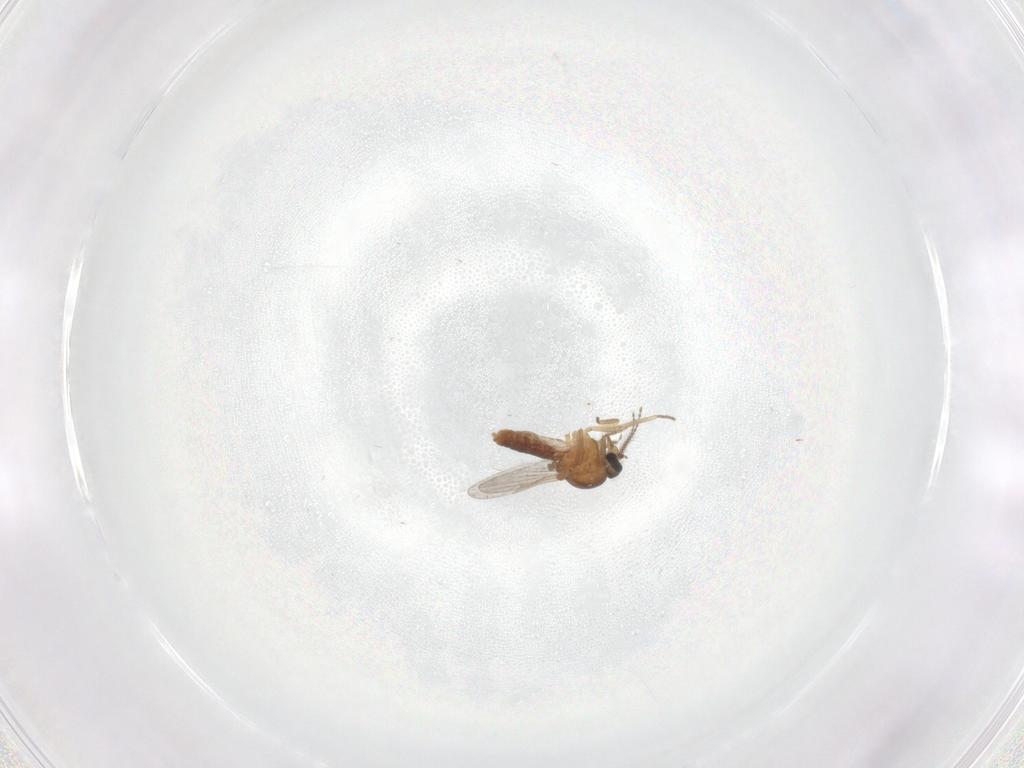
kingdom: Animalia
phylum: Arthropoda
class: Insecta
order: Diptera
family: Ceratopogonidae
